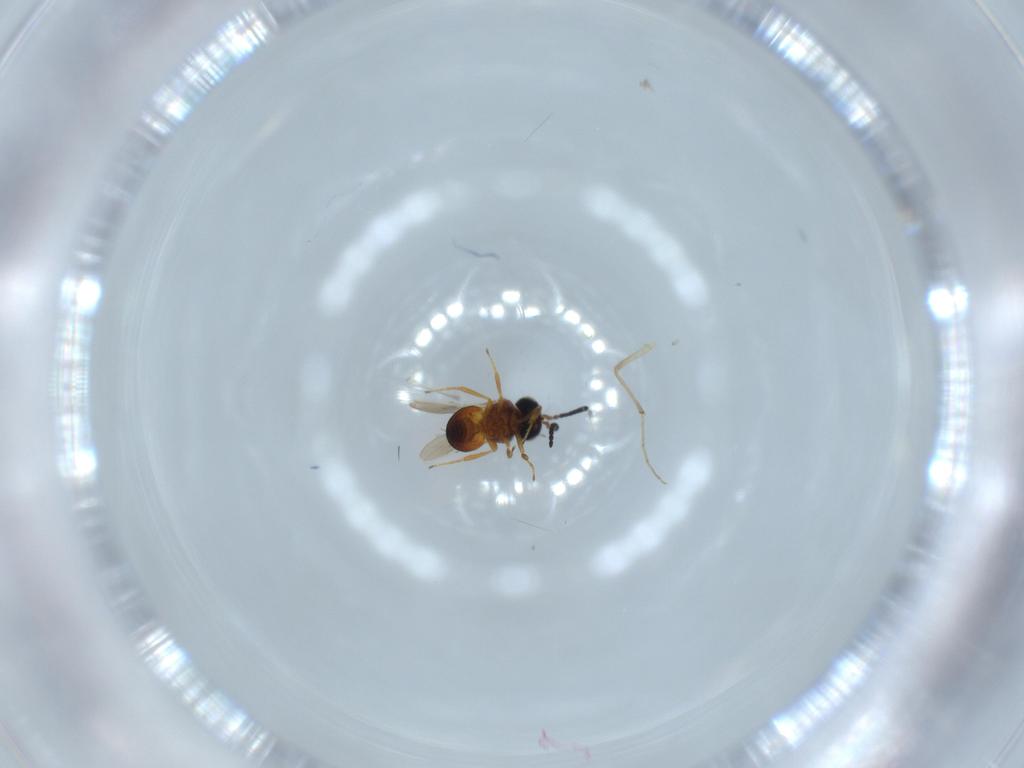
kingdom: Animalia
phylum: Arthropoda
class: Insecta
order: Hymenoptera
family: Scelionidae
